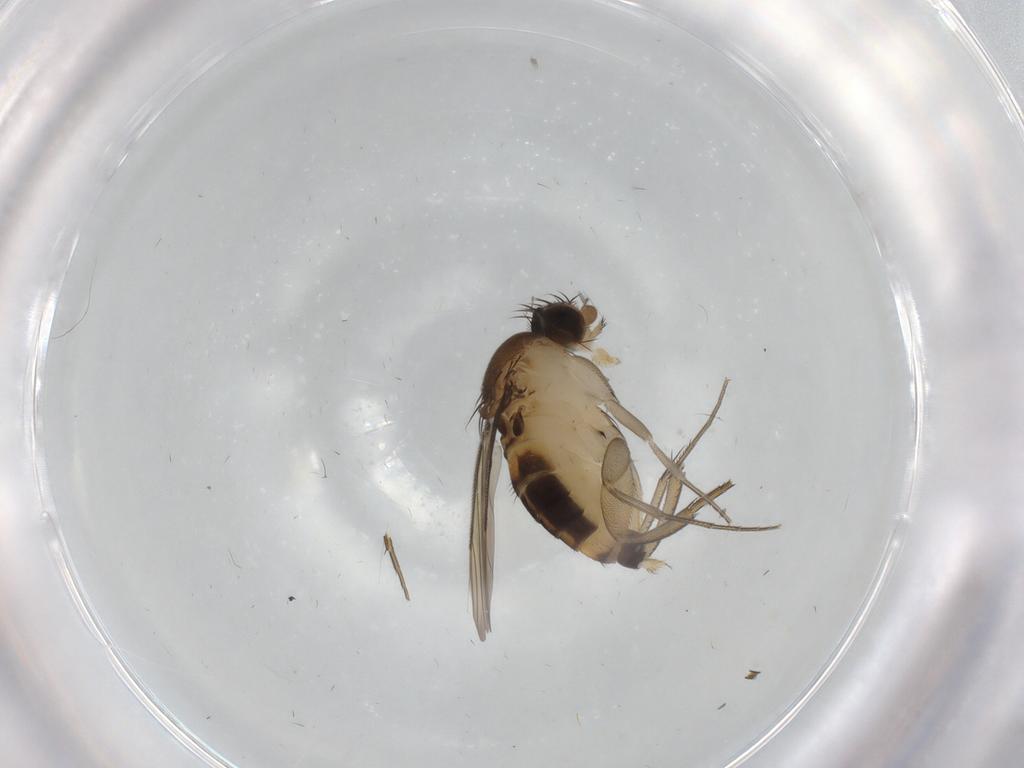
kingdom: Animalia
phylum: Arthropoda
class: Insecta
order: Diptera
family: Cecidomyiidae
